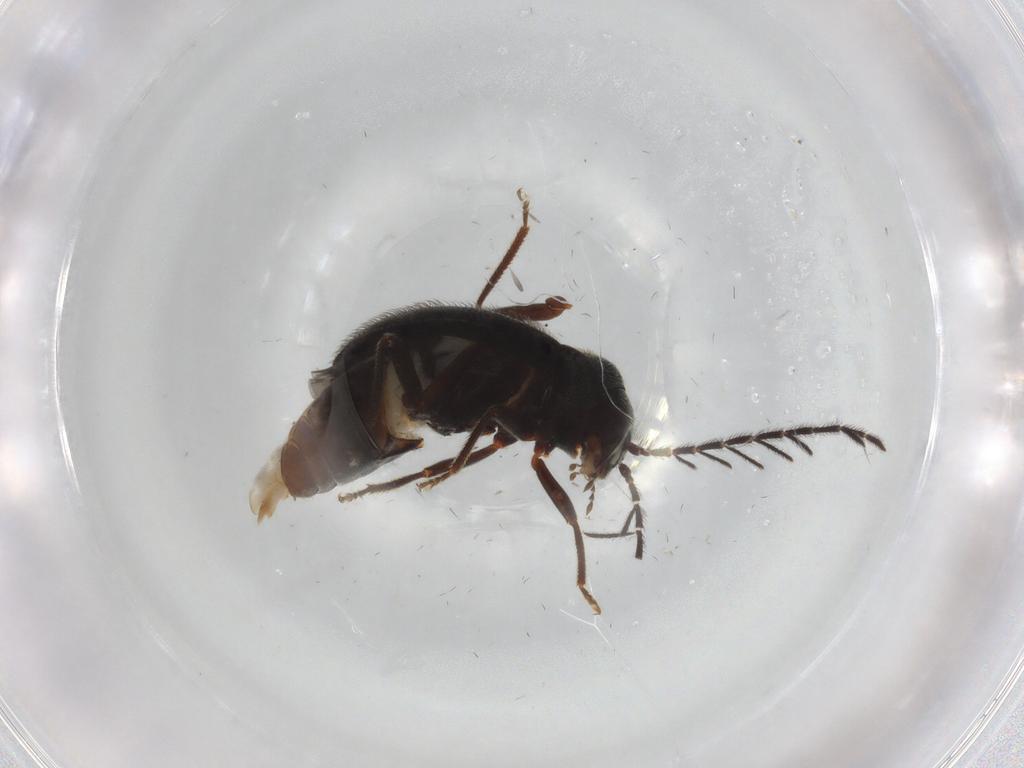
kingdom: Animalia
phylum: Arthropoda
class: Insecta
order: Coleoptera
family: Ptilodactylidae
